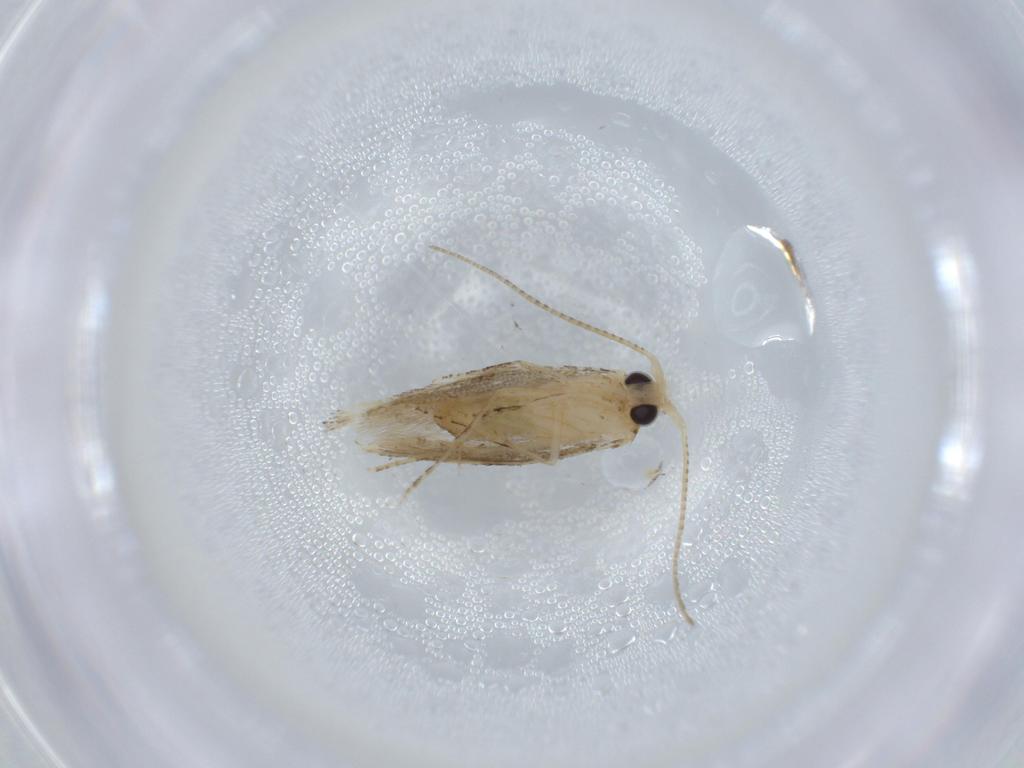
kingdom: Animalia
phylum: Arthropoda
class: Insecta
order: Lepidoptera
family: Bucculatricidae
